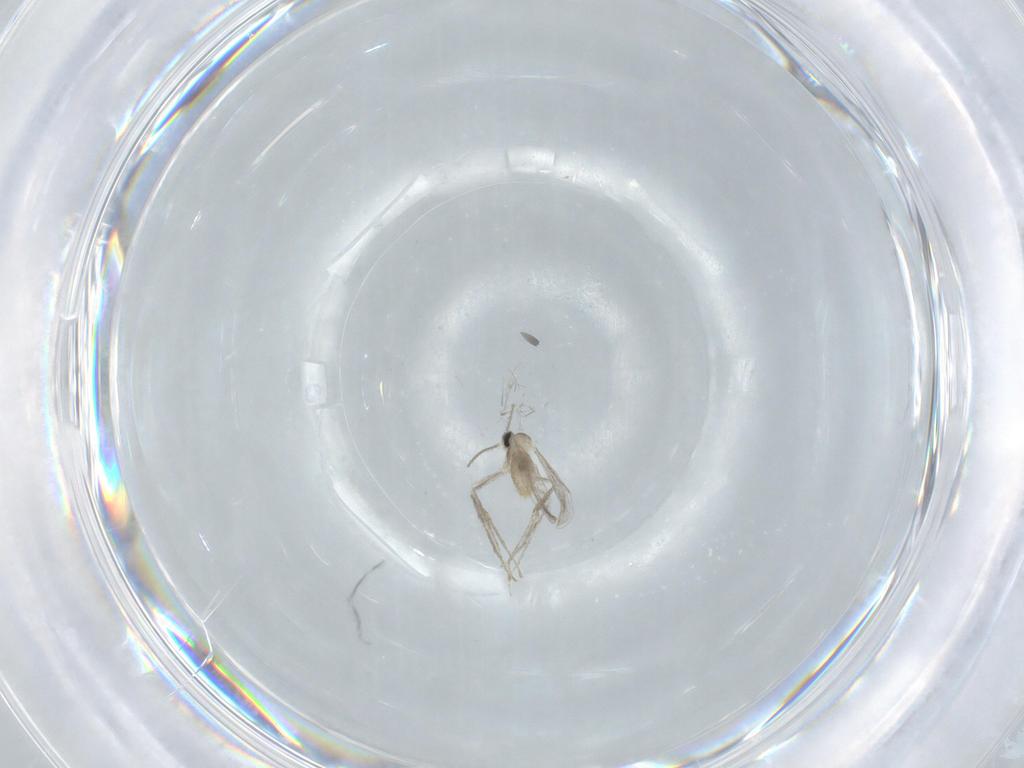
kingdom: Animalia
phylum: Arthropoda
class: Insecta
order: Diptera
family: Cecidomyiidae
